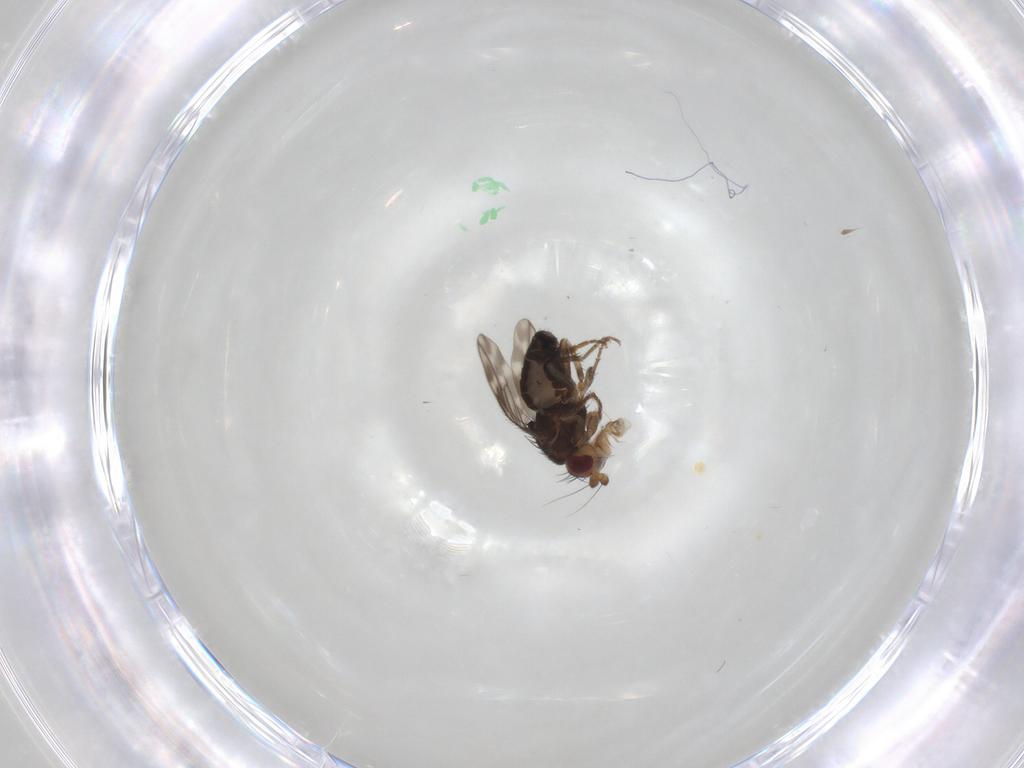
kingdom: Animalia
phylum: Arthropoda
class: Insecta
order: Diptera
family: Sphaeroceridae
